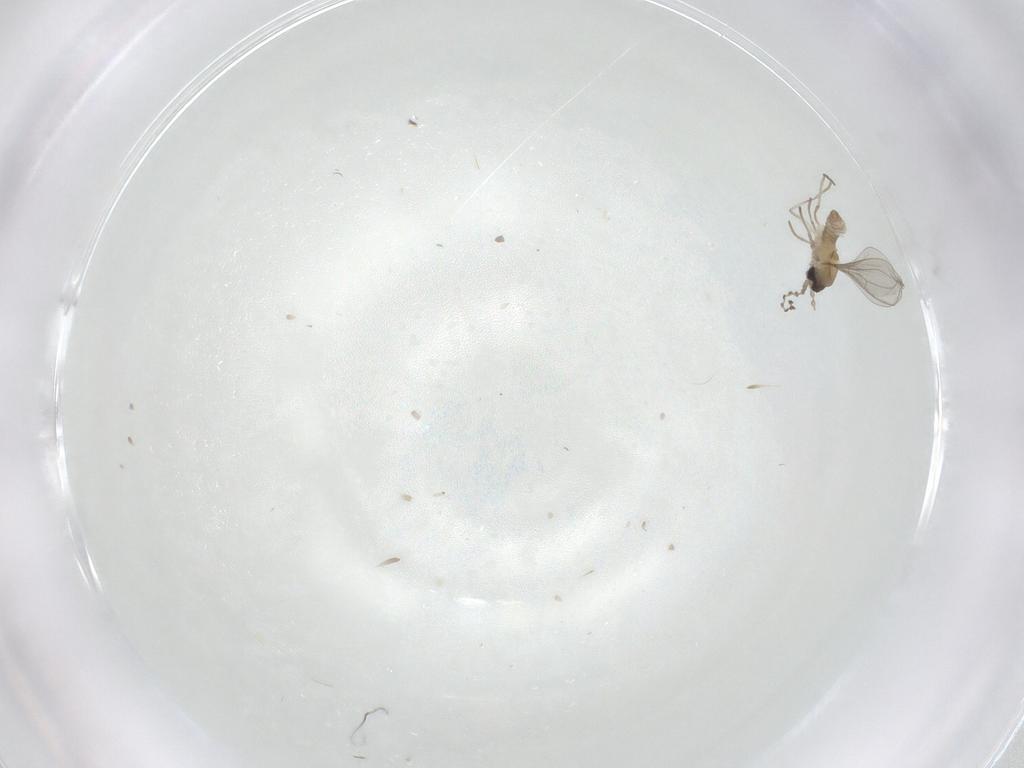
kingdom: Animalia
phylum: Arthropoda
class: Insecta
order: Diptera
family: Cecidomyiidae
